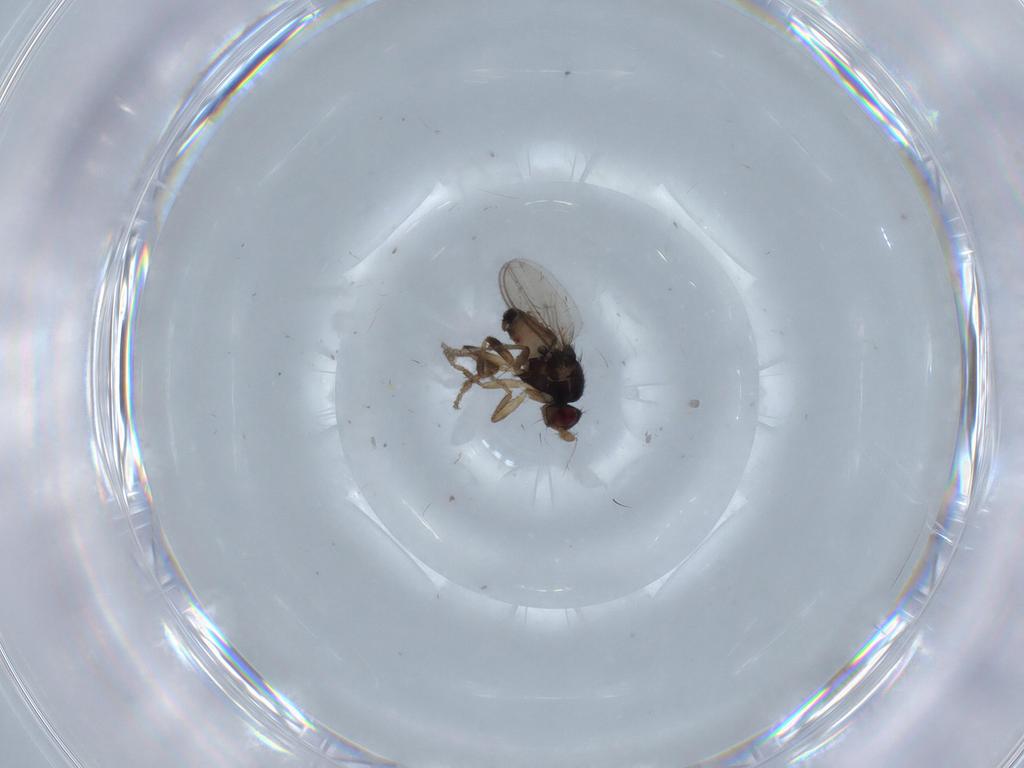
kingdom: Animalia
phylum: Arthropoda
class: Insecta
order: Diptera
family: Phoridae
